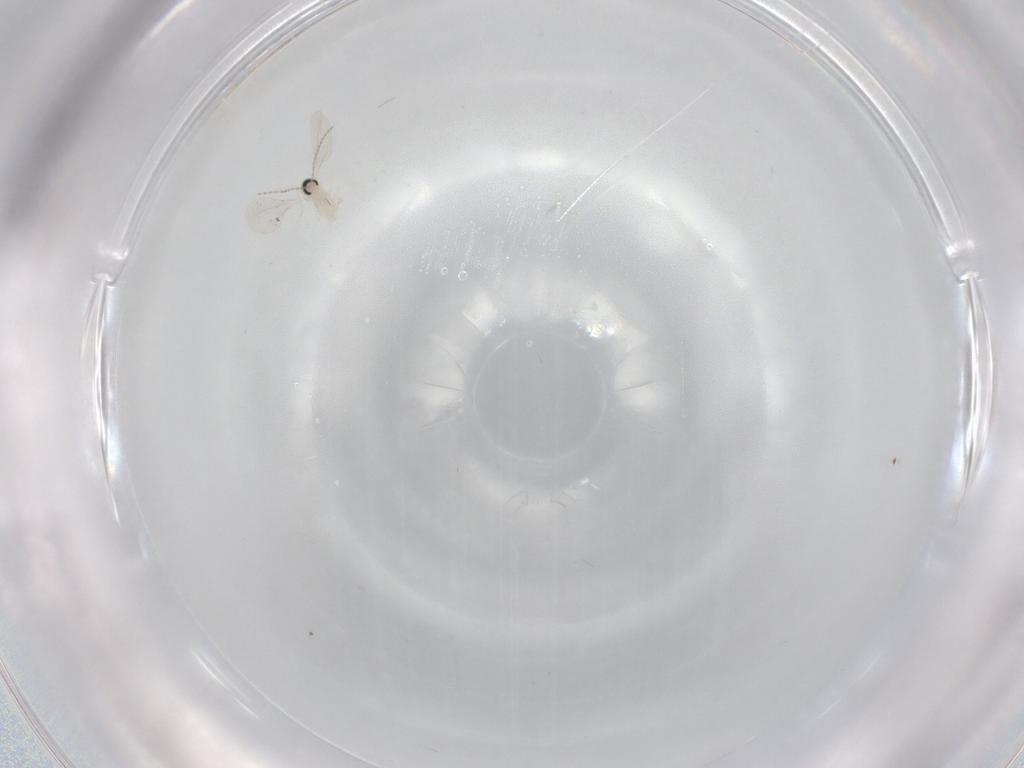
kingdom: Animalia
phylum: Arthropoda
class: Insecta
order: Diptera
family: Cecidomyiidae
